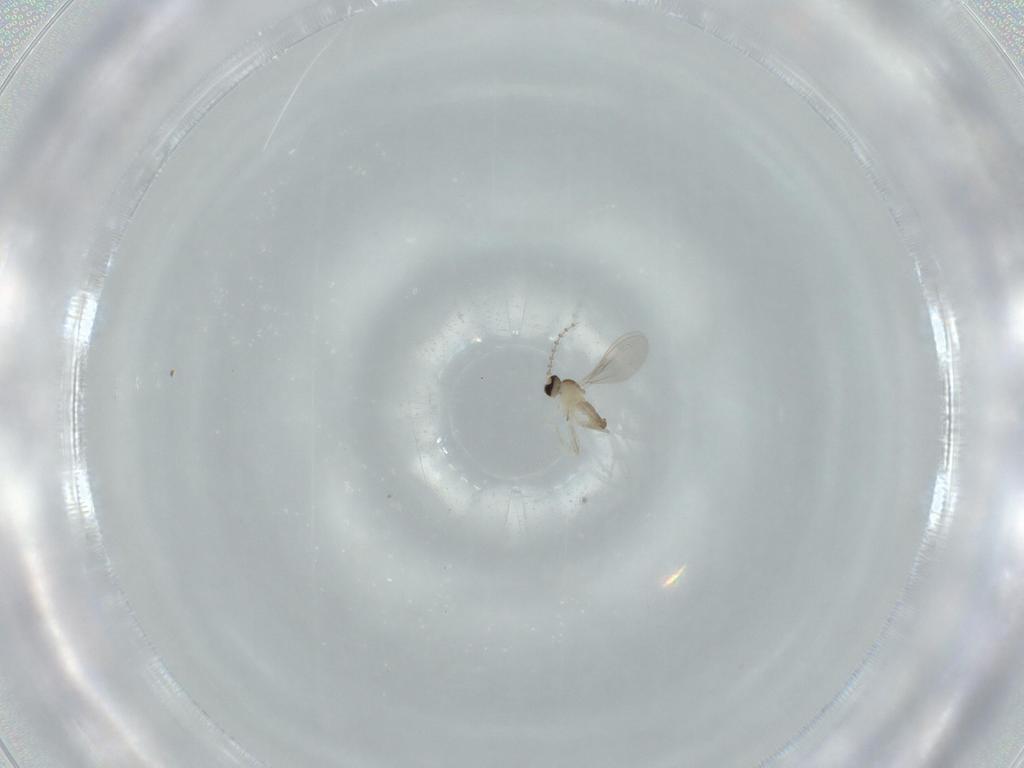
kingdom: Animalia
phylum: Arthropoda
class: Insecta
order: Diptera
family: Cecidomyiidae
